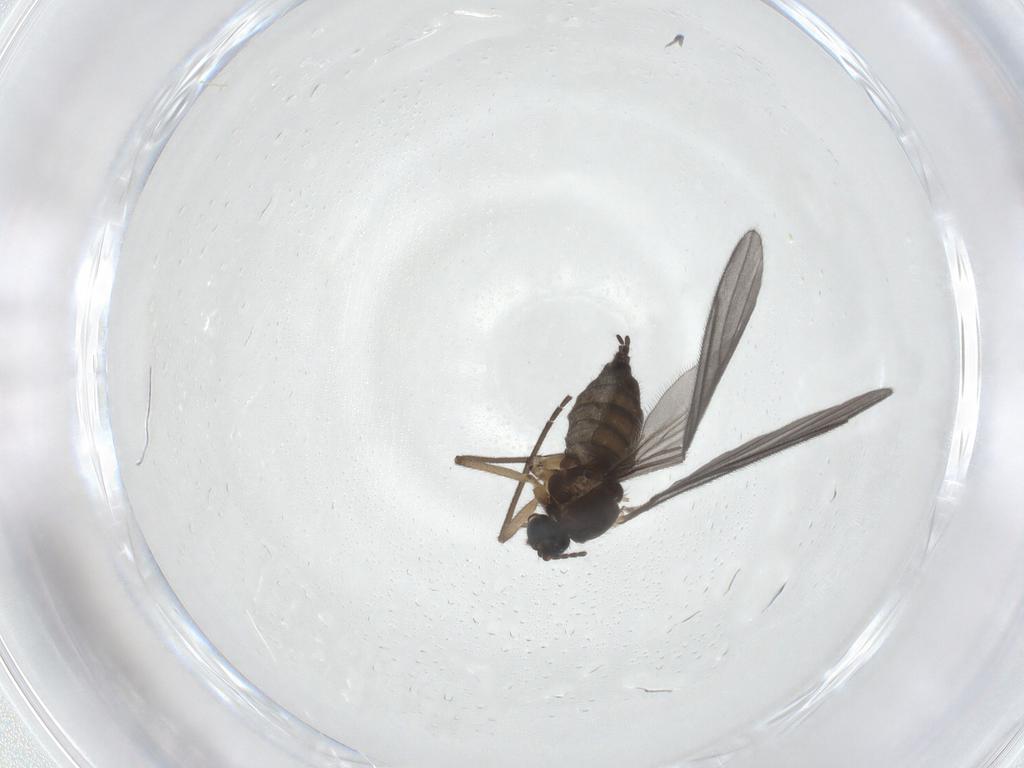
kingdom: Animalia
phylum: Arthropoda
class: Insecta
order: Diptera
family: Sciaridae
